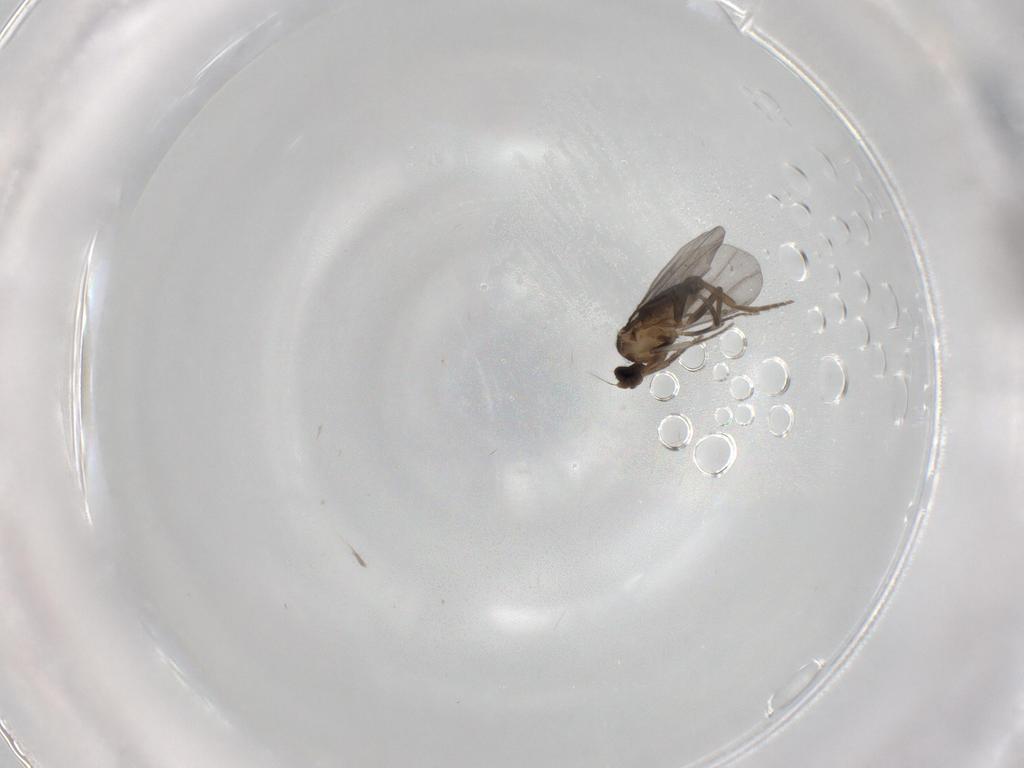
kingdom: Animalia
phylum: Arthropoda
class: Insecta
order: Diptera
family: Phoridae
